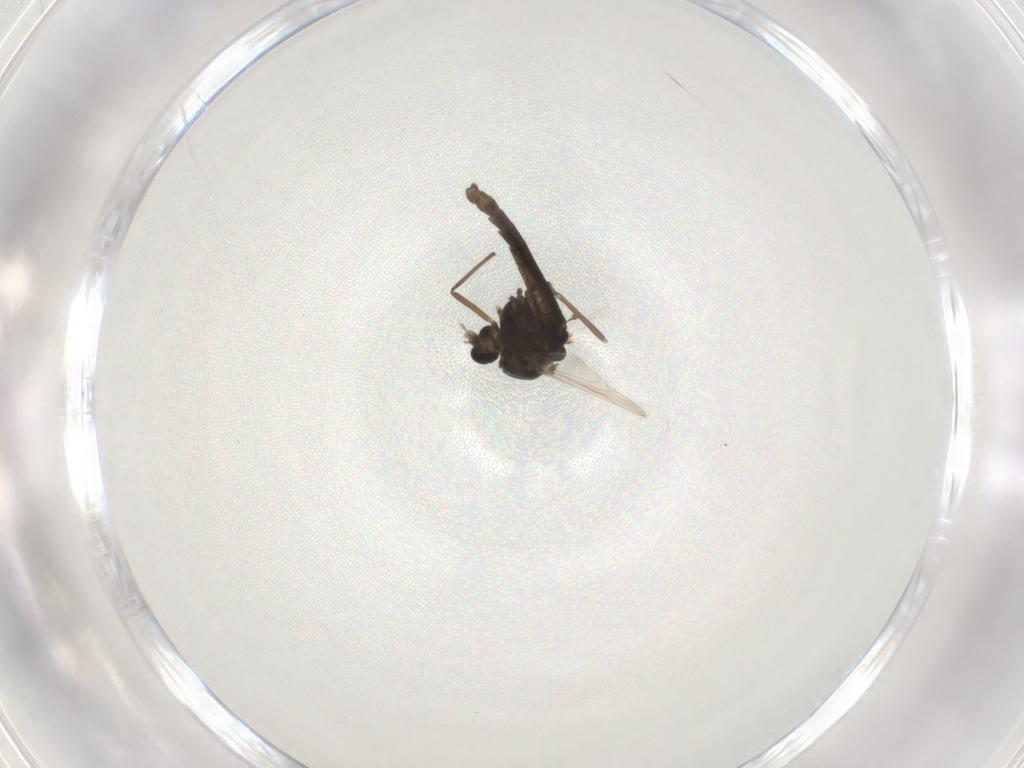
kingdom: Animalia
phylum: Arthropoda
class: Insecta
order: Diptera
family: Chironomidae
